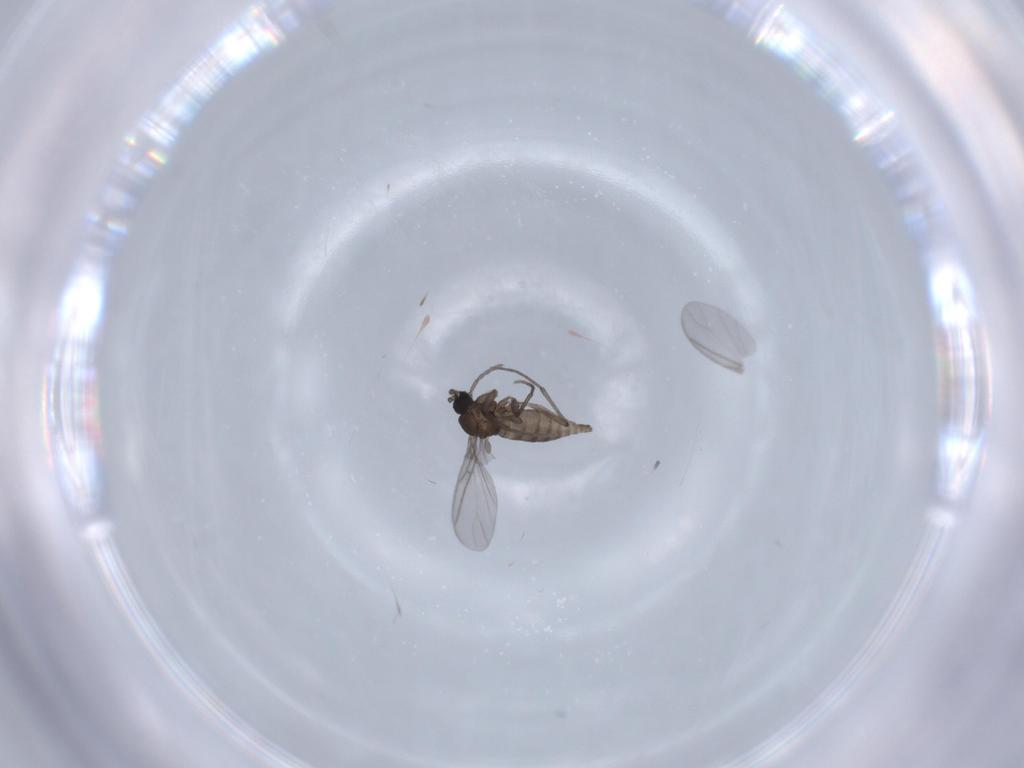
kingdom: Animalia
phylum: Arthropoda
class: Insecta
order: Diptera
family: Sciaridae
